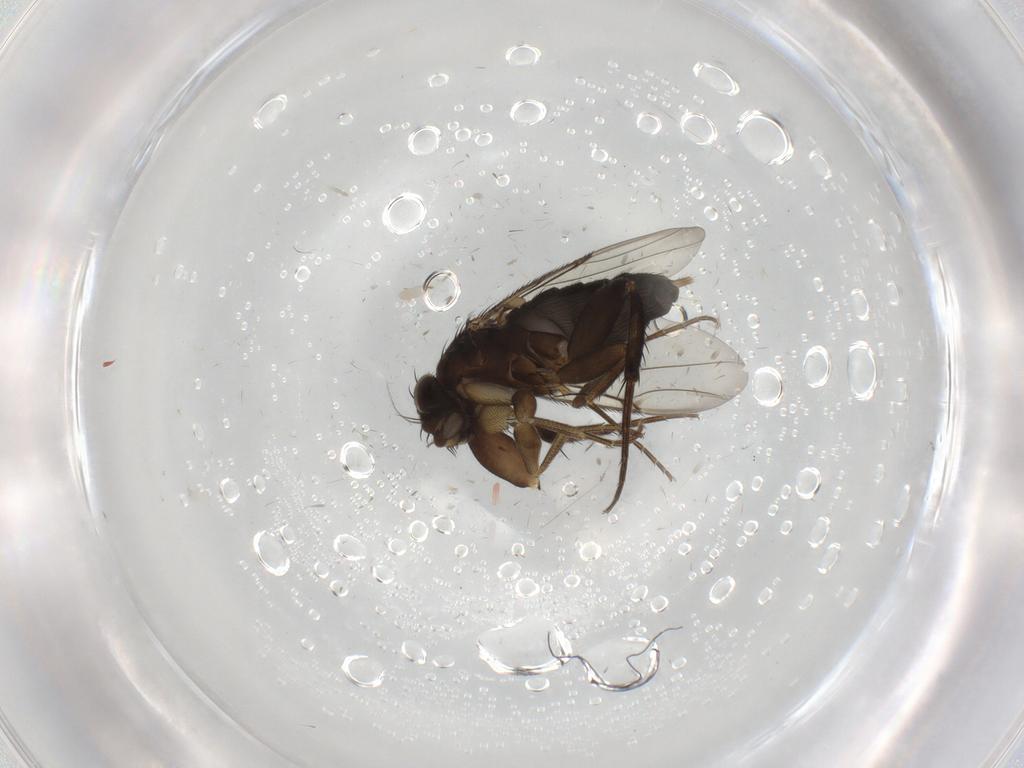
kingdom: Animalia
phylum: Arthropoda
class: Insecta
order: Diptera
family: Phoridae
